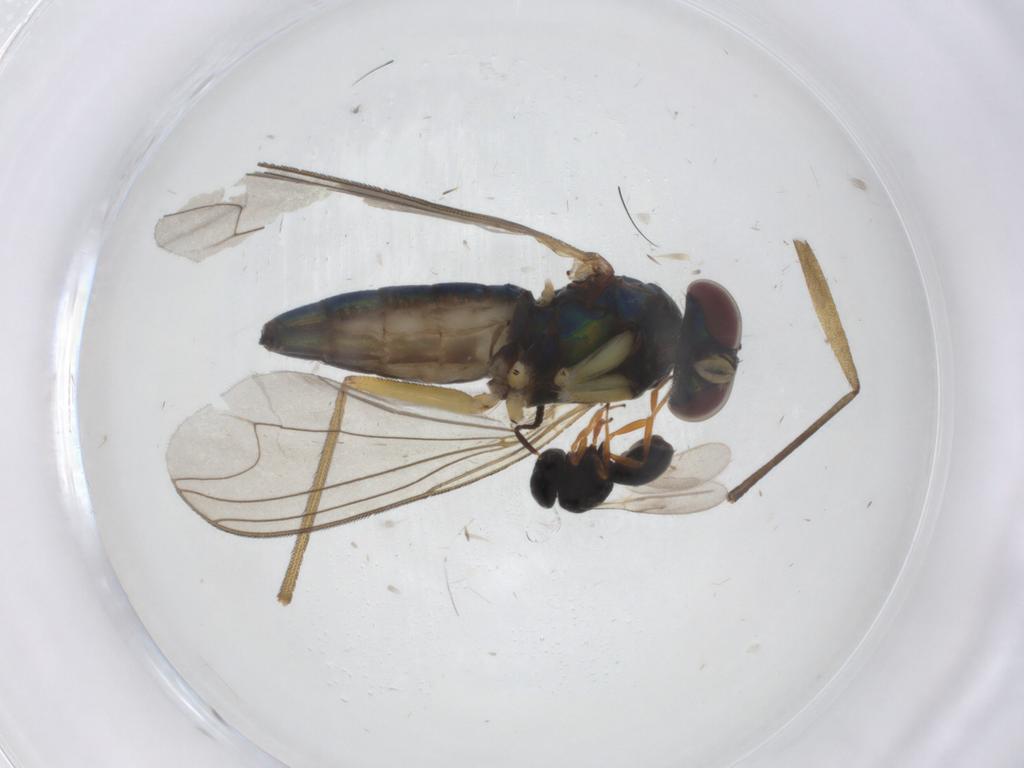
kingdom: Animalia
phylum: Arthropoda
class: Insecta
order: Diptera
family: Dolichopodidae
